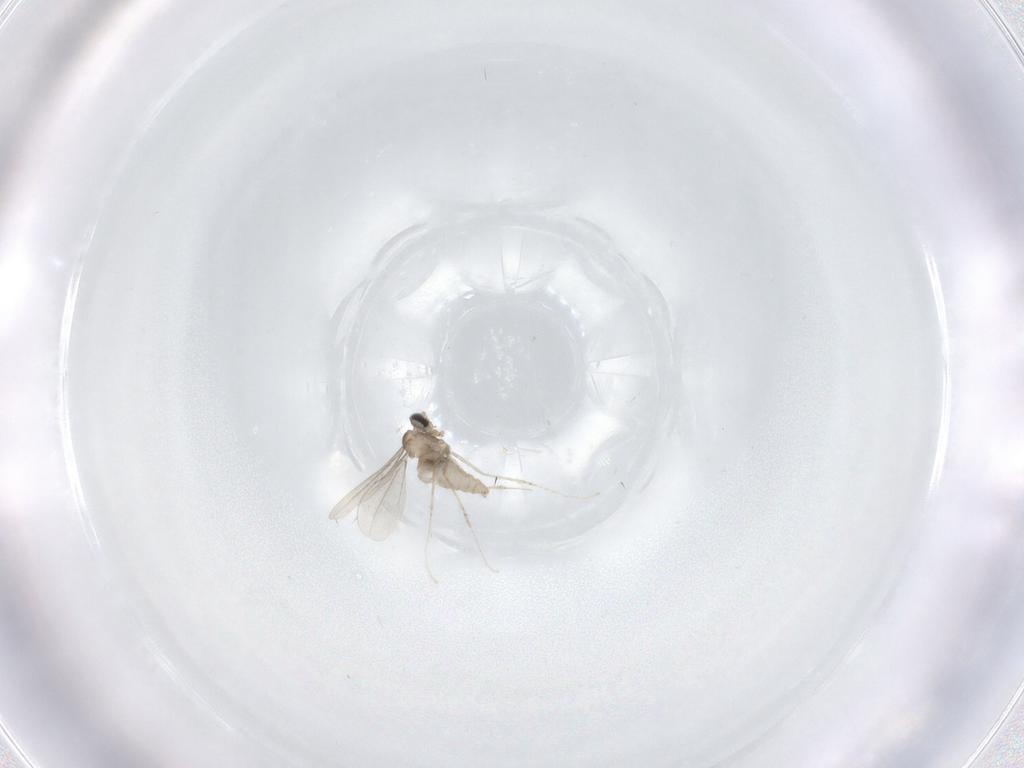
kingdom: Animalia
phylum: Arthropoda
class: Insecta
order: Diptera
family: Cecidomyiidae
